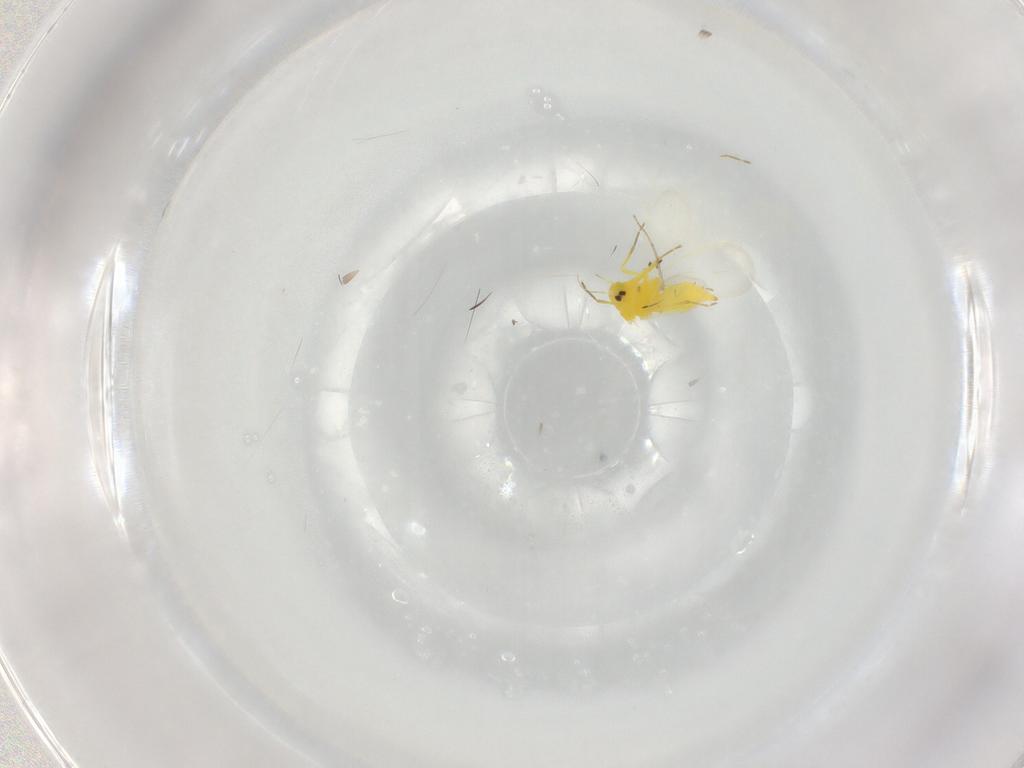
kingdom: Animalia
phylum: Arthropoda
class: Insecta
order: Hemiptera
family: Aleyrodidae
